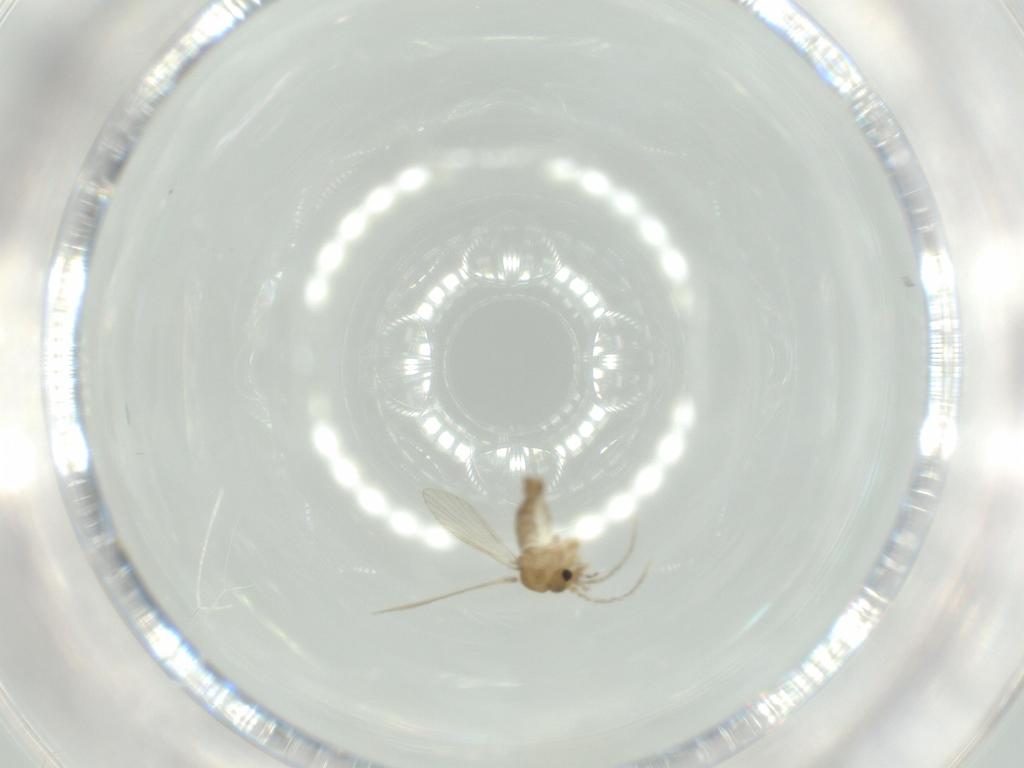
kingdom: Animalia
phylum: Arthropoda
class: Insecta
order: Diptera
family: Psychodidae
